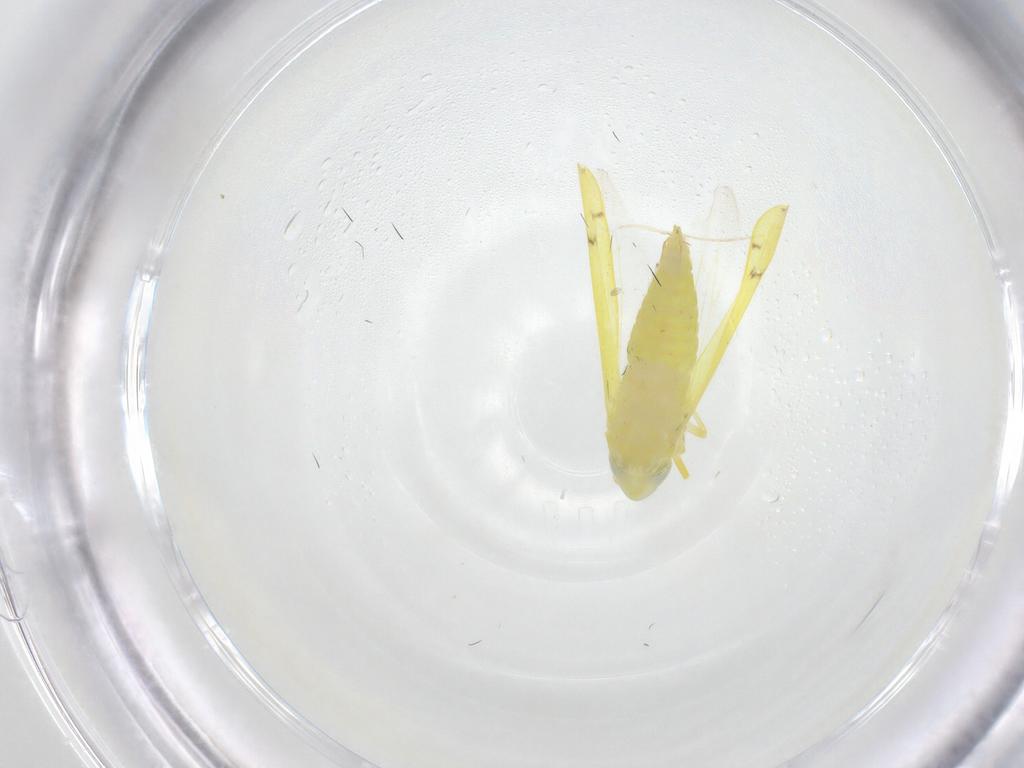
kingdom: Animalia
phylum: Arthropoda
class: Insecta
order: Hemiptera
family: Cicadellidae
